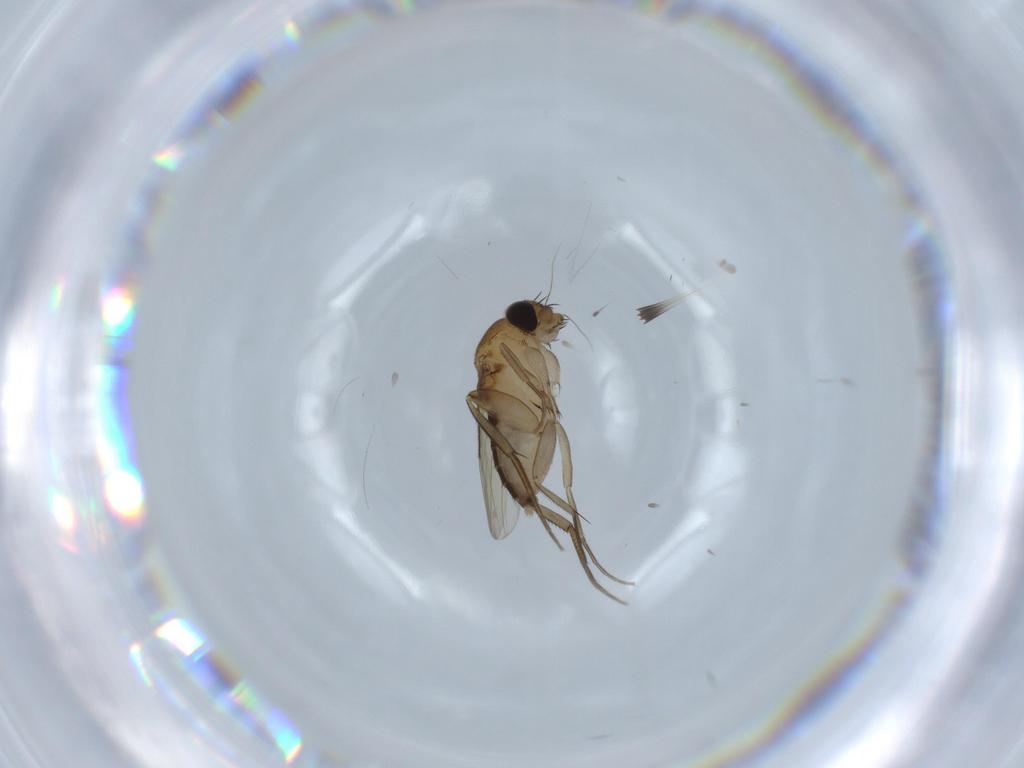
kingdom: Animalia
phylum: Arthropoda
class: Insecta
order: Diptera
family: Phoridae
